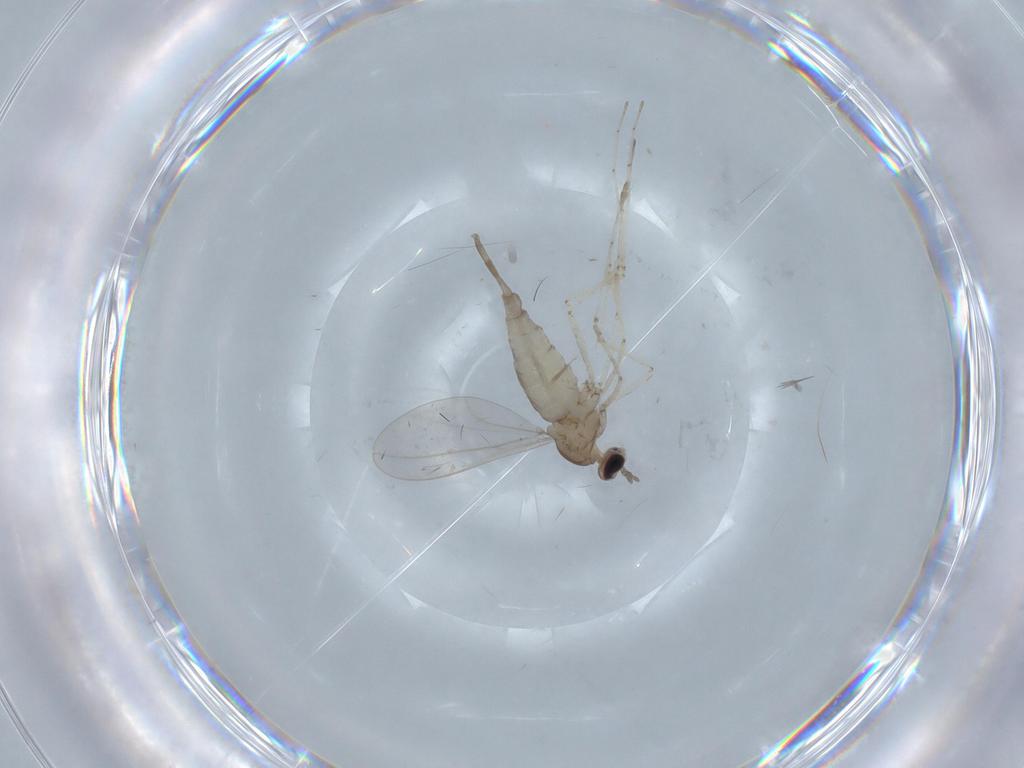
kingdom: Animalia
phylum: Arthropoda
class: Insecta
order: Diptera
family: Cecidomyiidae
